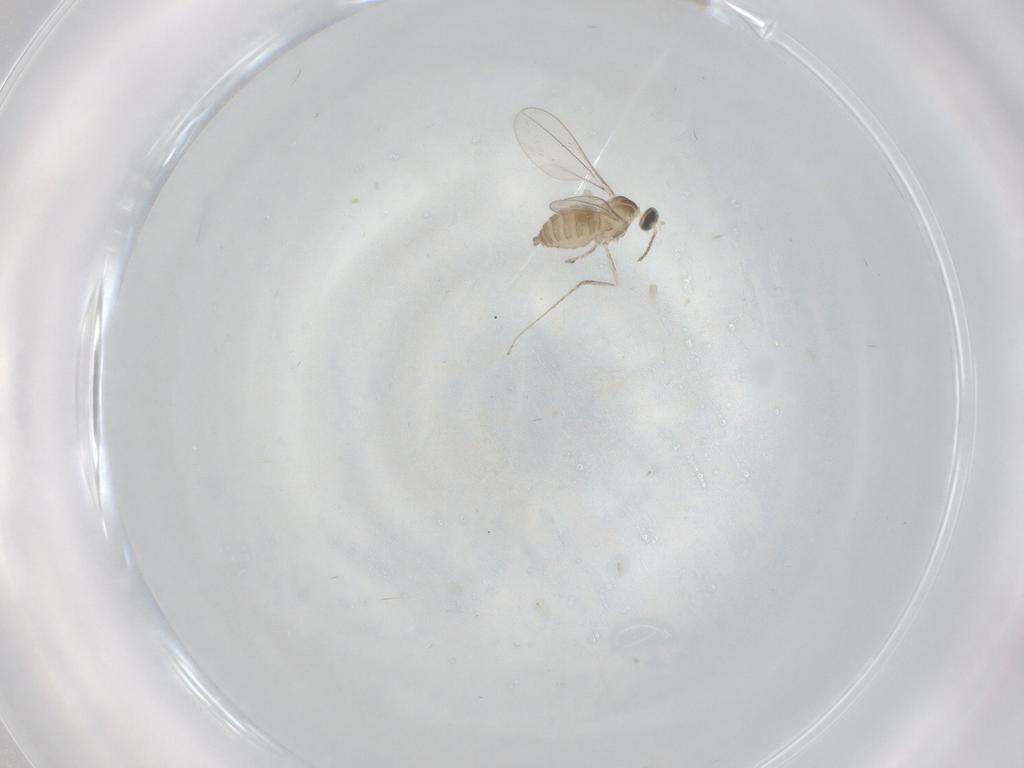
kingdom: Animalia
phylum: Arthropoda
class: Insecta
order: Diptera
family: Cecidomyiidae
